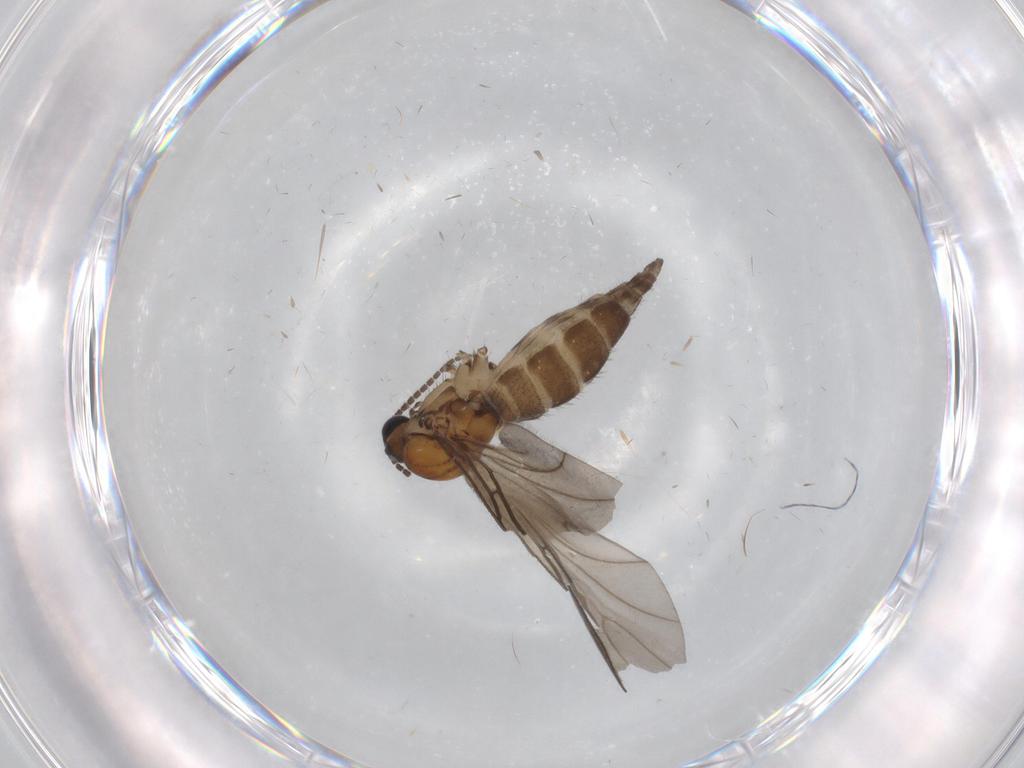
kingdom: Animalia
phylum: Arthropoda
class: Insecta
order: Diptera
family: Sciaridae
